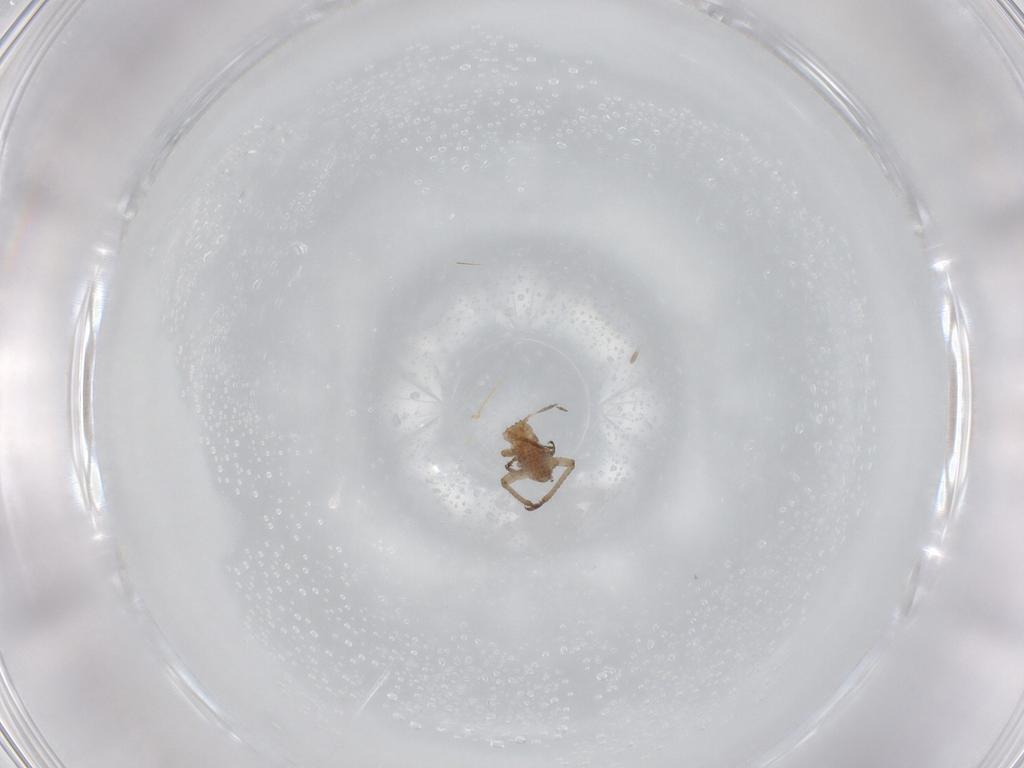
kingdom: Animalia
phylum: Arthropoda
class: Insecta
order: Hemiptera
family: Aphididae
